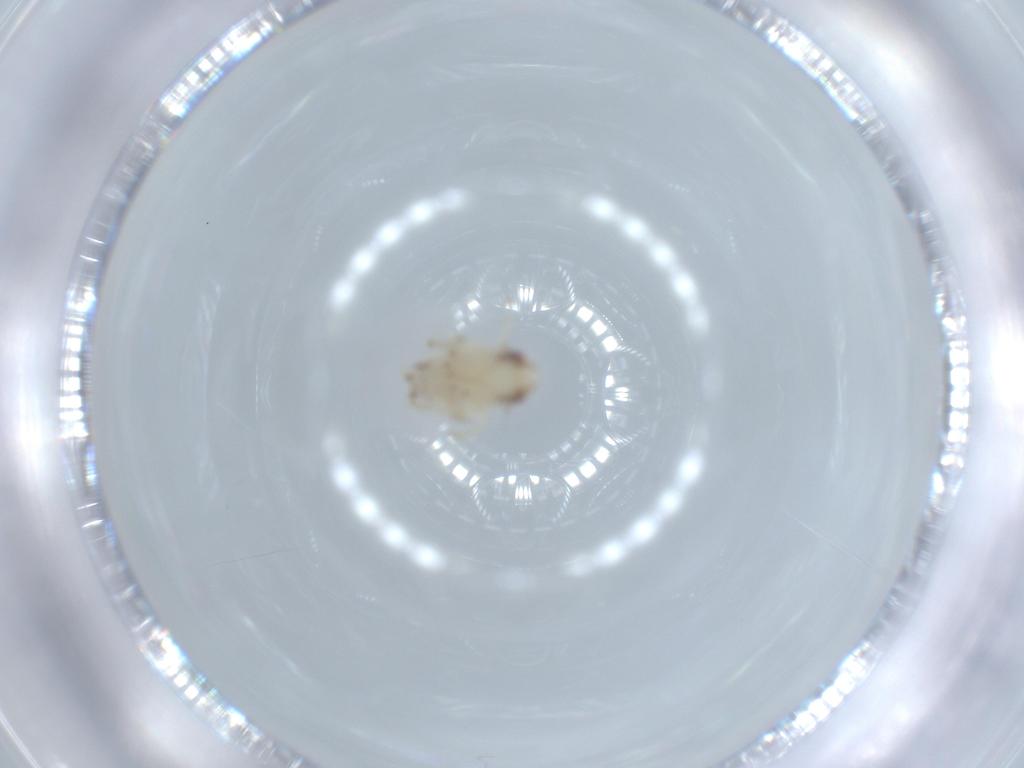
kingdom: Animalia
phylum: Arthropoda
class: Insecta
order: Hemiptera
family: Nogodinidae
